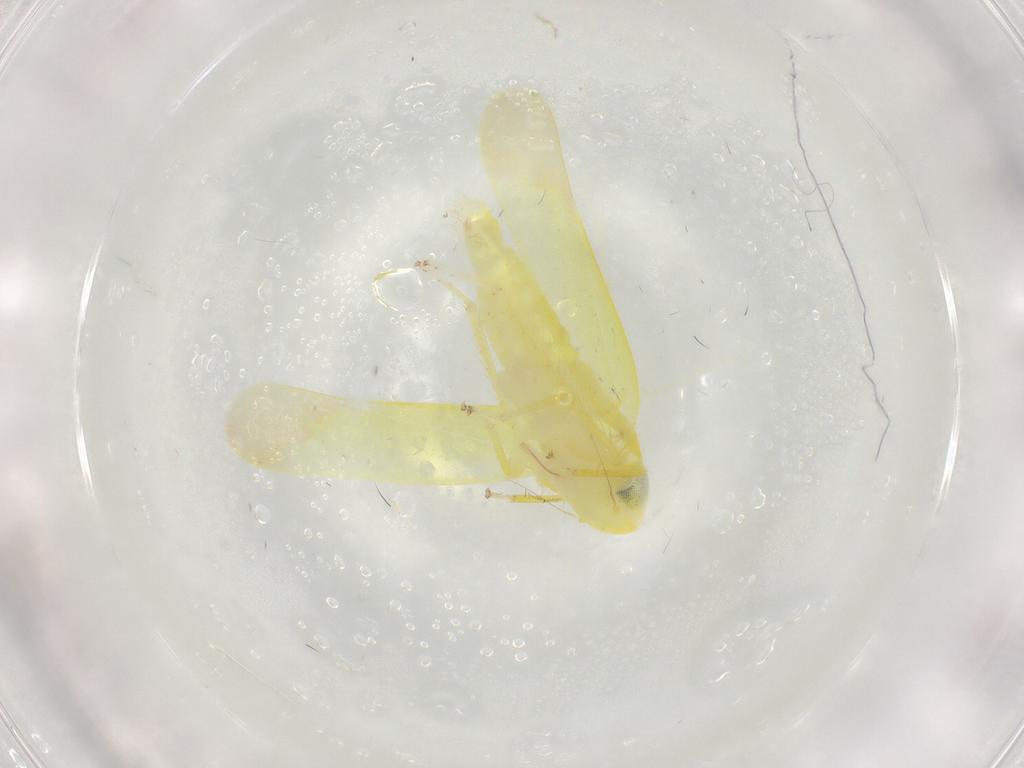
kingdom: Animalia
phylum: Arthropoda
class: Insecta
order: Hemiptera
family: Cicadellidae
